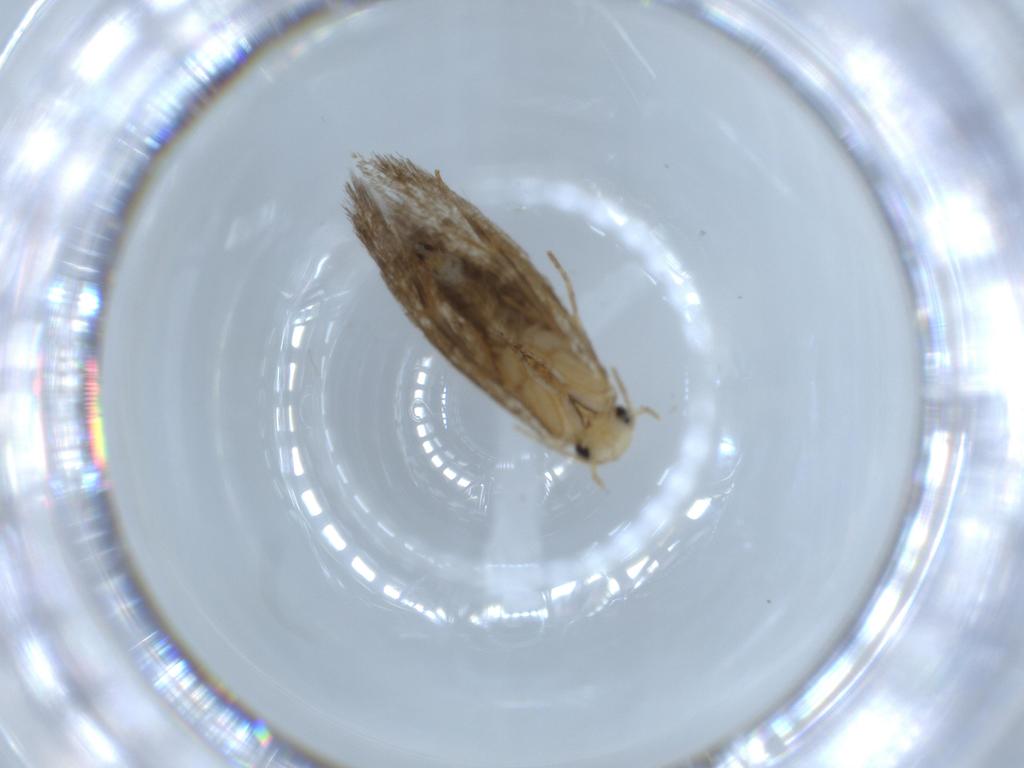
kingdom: Animalia
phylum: Arthropoda
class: Insecta
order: Lepidoptera
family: Tineidae
